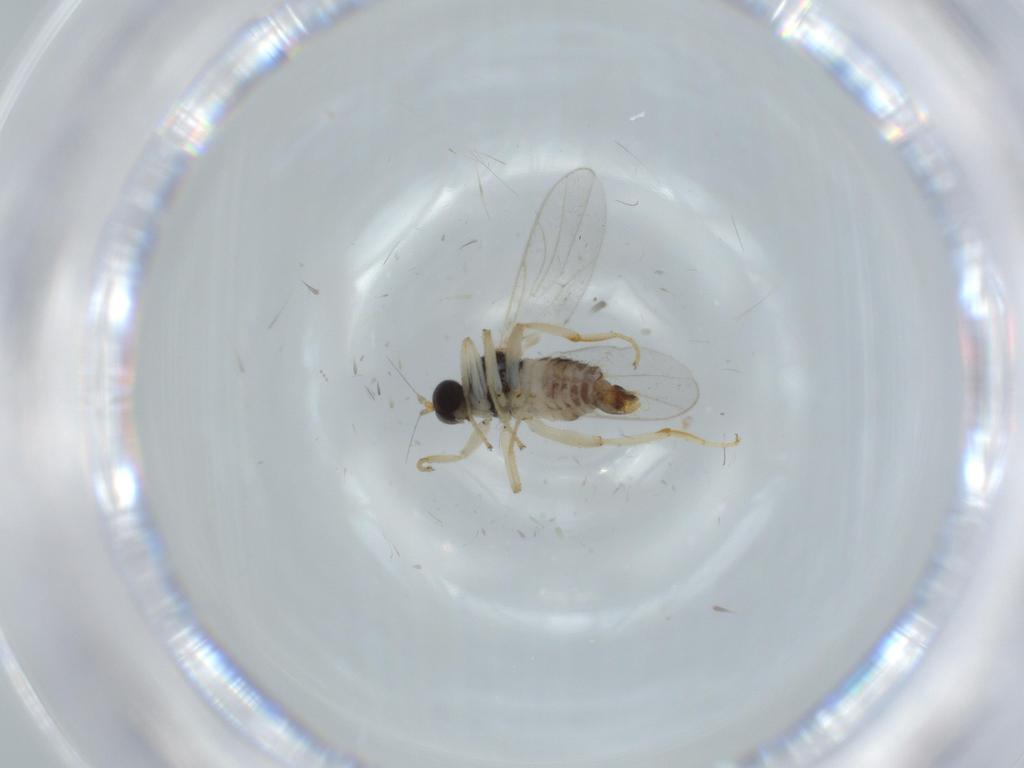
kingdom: Animalia
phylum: Arthropoda
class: Insecta
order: Diptera
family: Hybotidae
